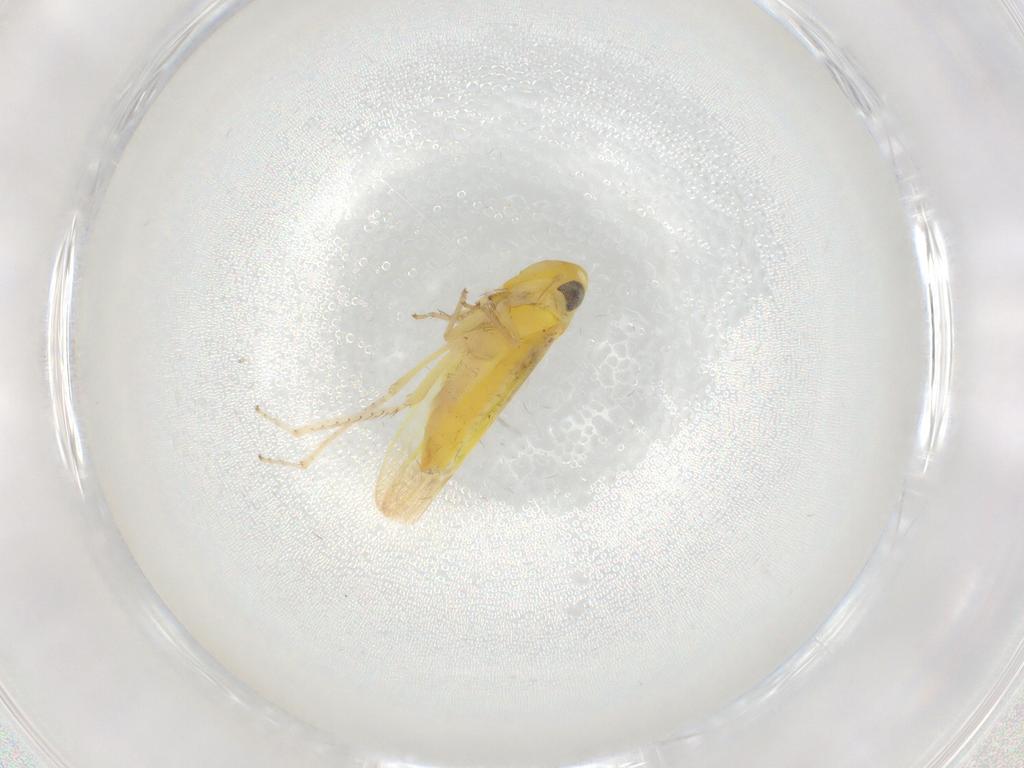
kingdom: Animalia
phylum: Arthropoda
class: Insecta
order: Hemiptera
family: Cicadellidae
